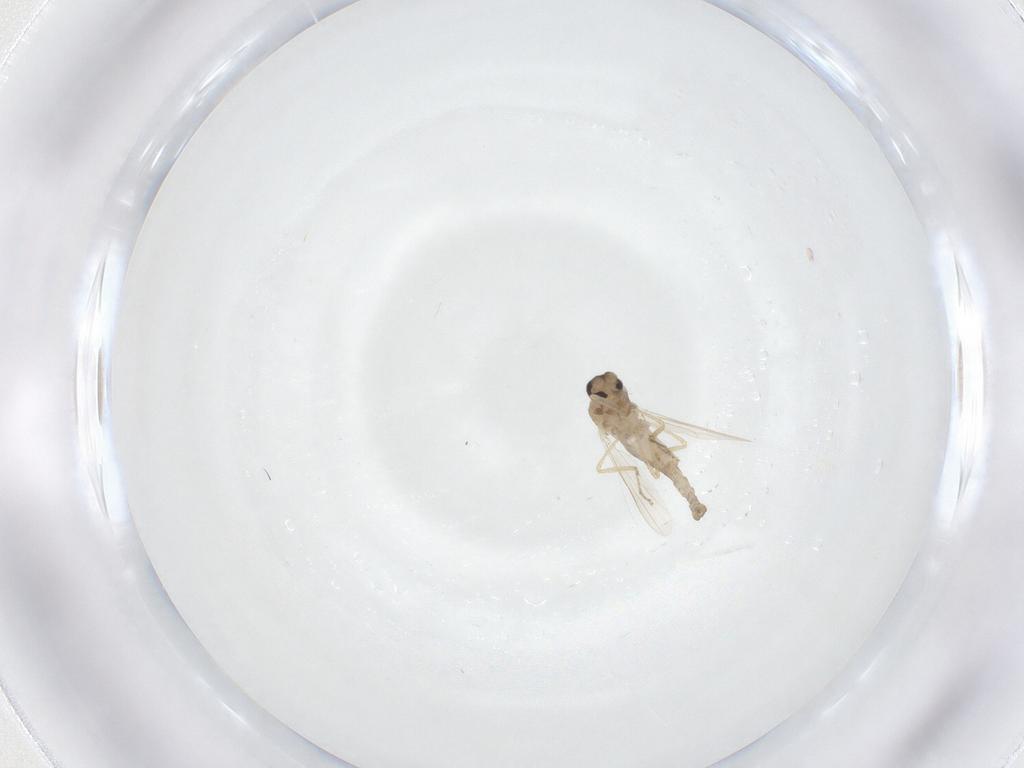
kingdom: Animalia
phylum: Arthropoda
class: Insecta
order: Diptera
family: Ceratopogonidae
